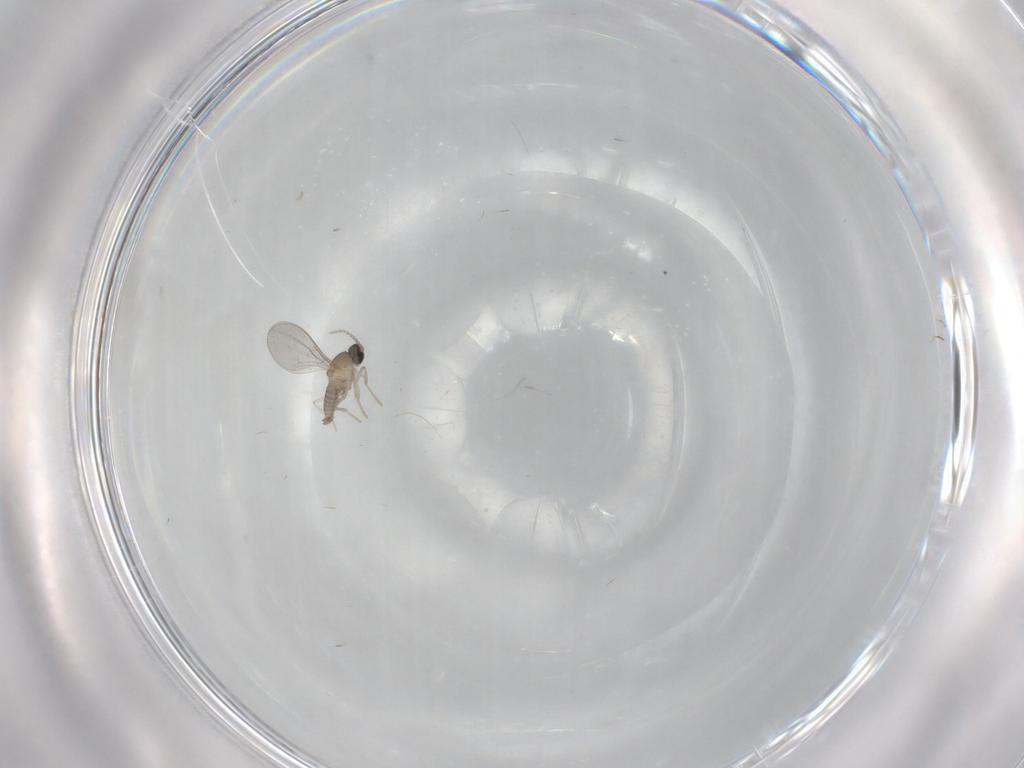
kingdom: Animalia
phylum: Arthropoda
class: Insecta
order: Diptera
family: Cecidomyiidae
